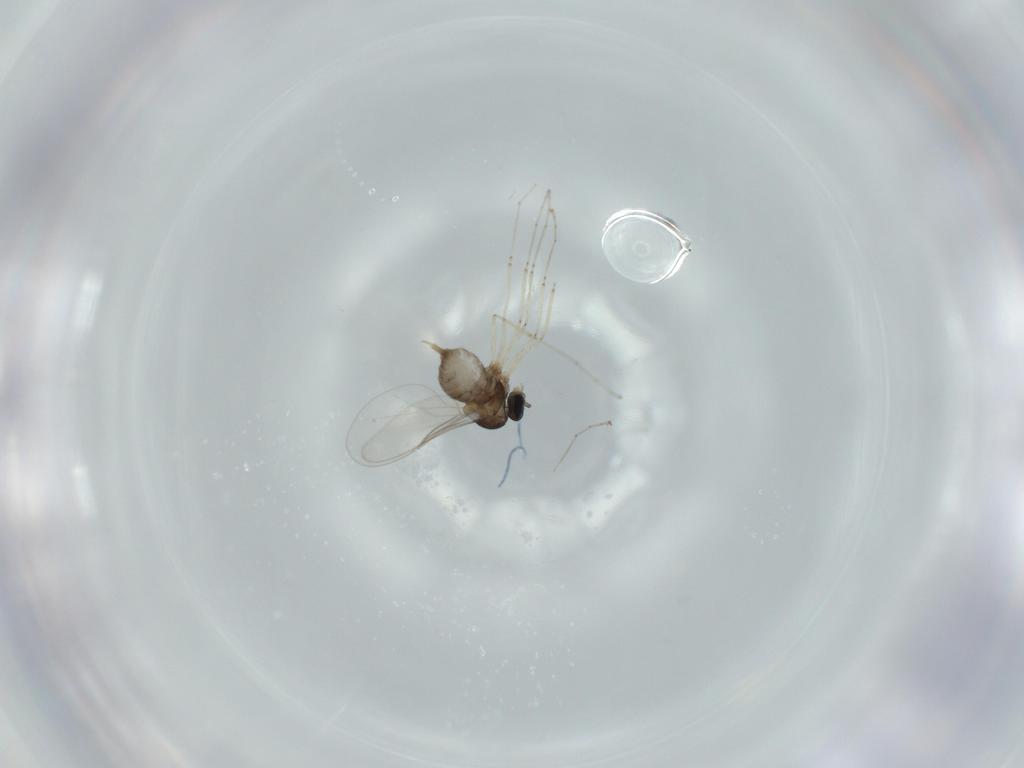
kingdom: Animalia
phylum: Arthropoda
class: Insecta
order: Diptera
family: Cecidomyiidae
